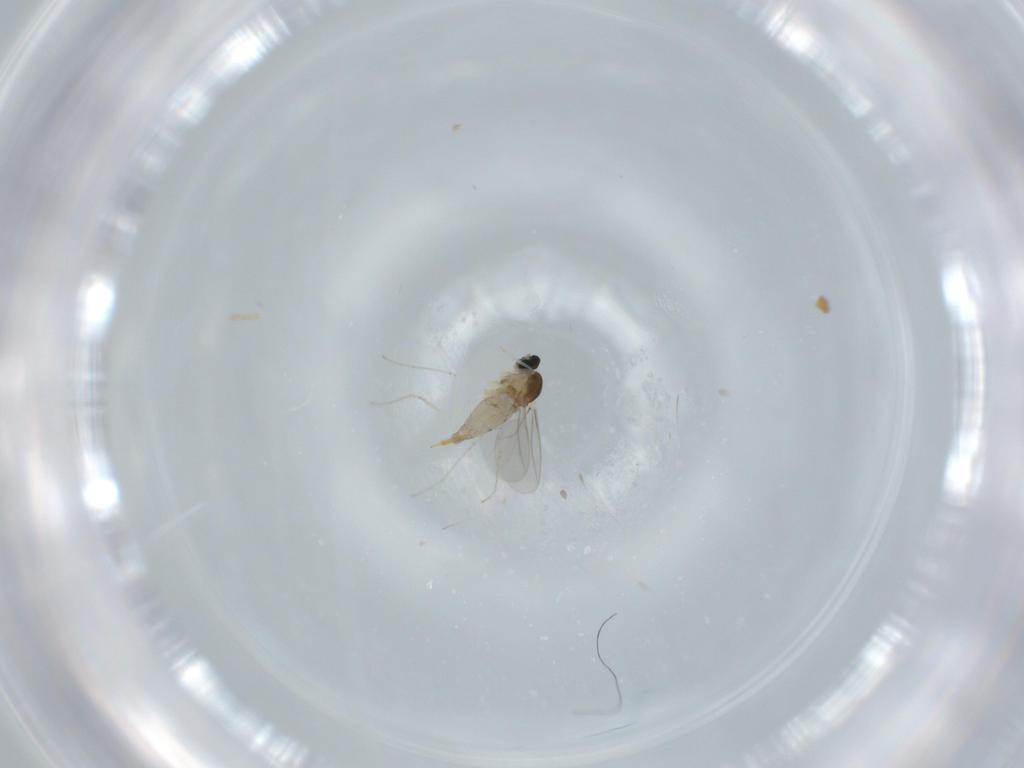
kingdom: Animalia
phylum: Arthropoda
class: Insecta
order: Diptera
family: Cecidomyiidae
